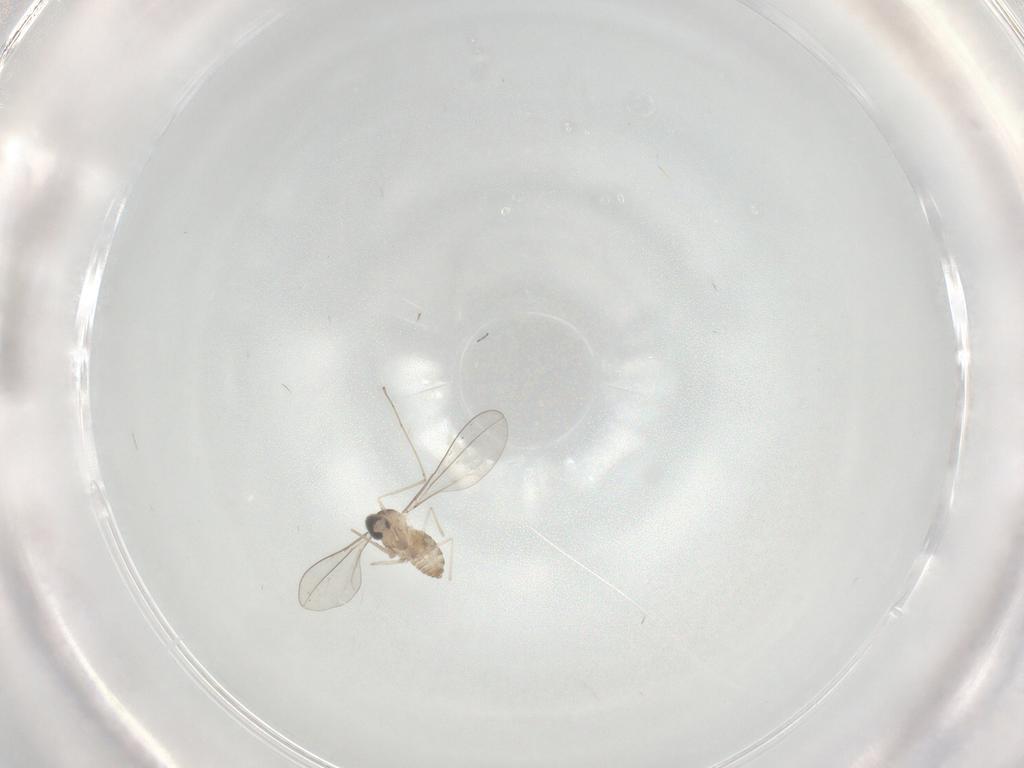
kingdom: Animalia
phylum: Arthropoda
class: Insecta
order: Diptera
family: Cecidomyiidae
